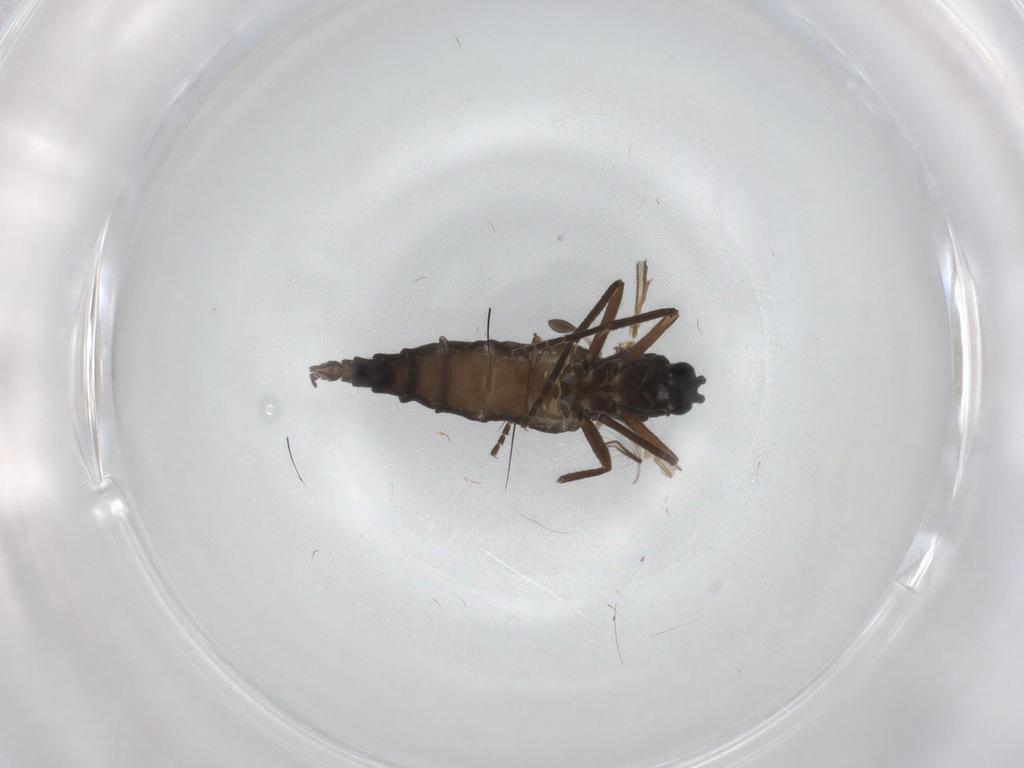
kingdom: Animalia
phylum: Arthropoda
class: Insecta
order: Diptera
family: Sciaridae
